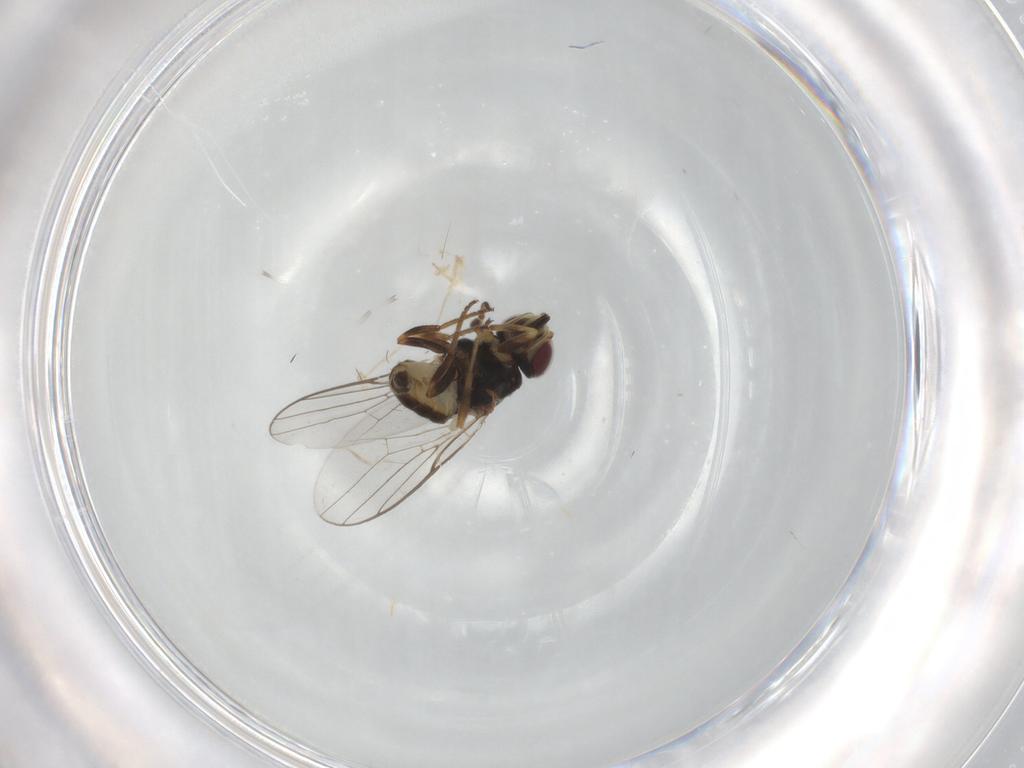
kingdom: Animalia
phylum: Arthropoda
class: Insecta
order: Diptera
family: Chloropidae
